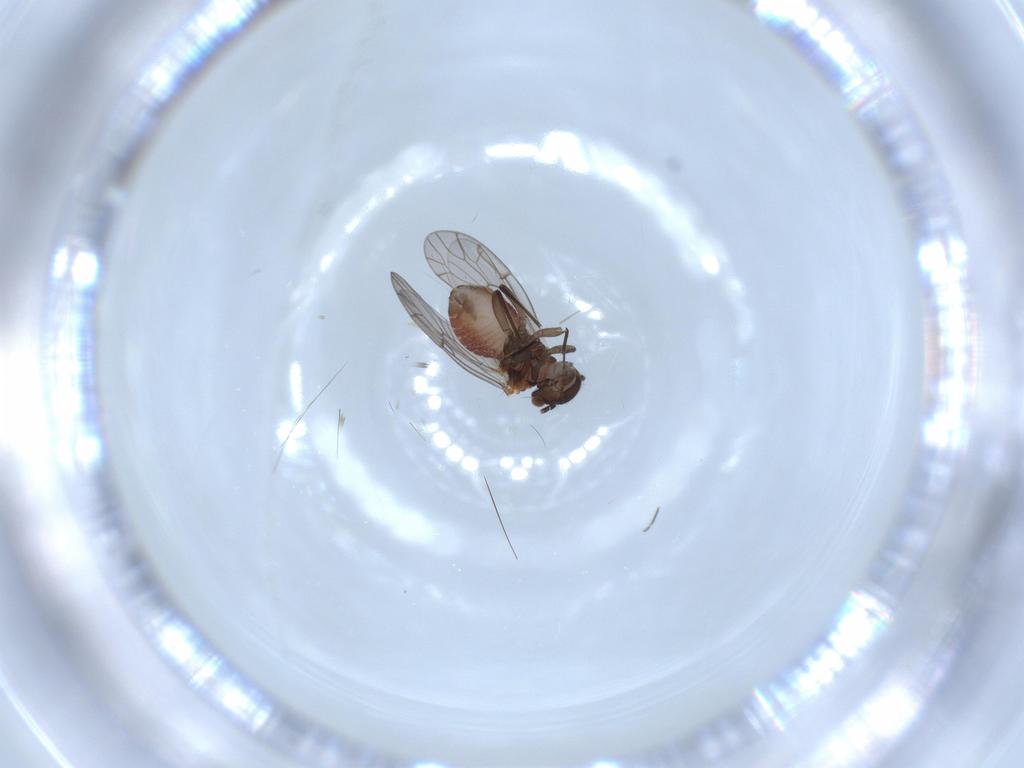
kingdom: Animalia
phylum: Arthropoda
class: Insecta
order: Psocodea
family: Ectopsocidae
